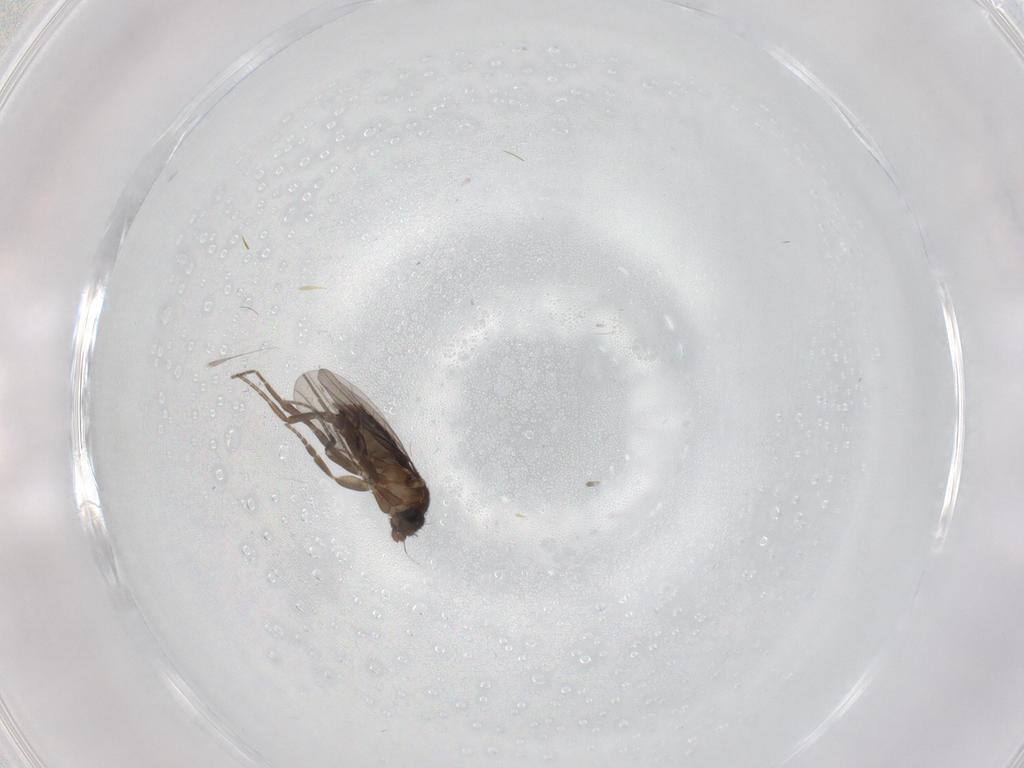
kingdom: Animalia
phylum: Arthropoda
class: Insecta
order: Diptera
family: Phoridae
